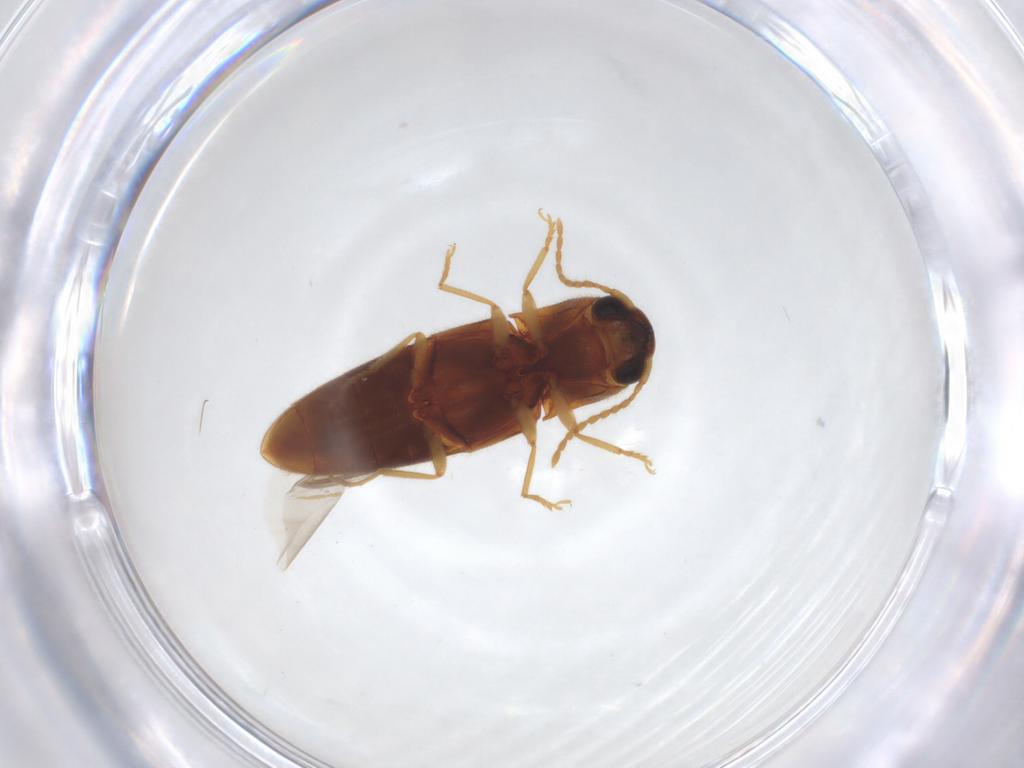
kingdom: Animalia
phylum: Arthropoda
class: Insecta
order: Coleoptera
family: Elateridae
